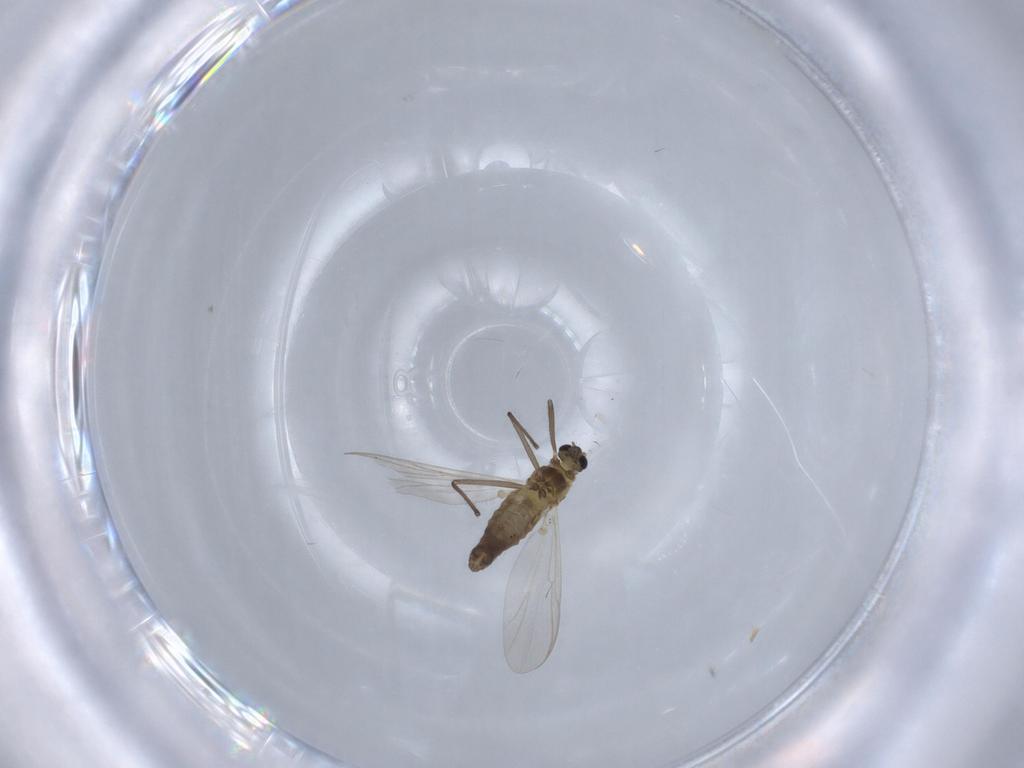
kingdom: Animalia
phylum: Arthropoda
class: Insecta
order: Diptera
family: Chironomidae
